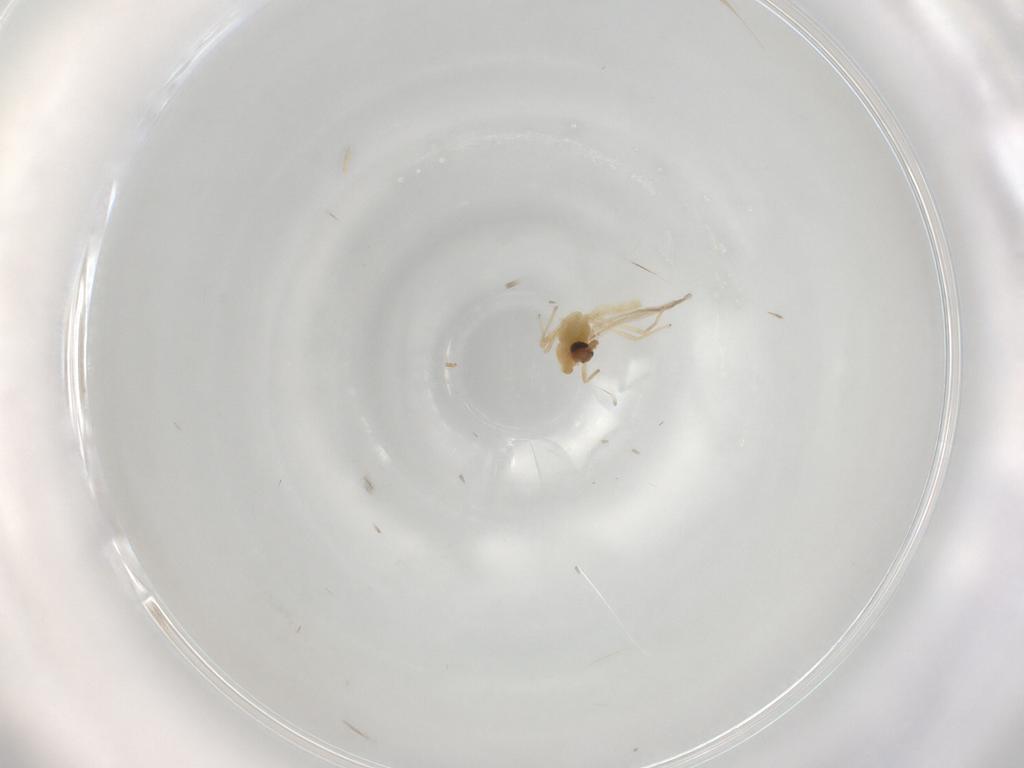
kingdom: Animalia
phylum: Arthropoda
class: Insecta
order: Diptera
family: Chironomidae
